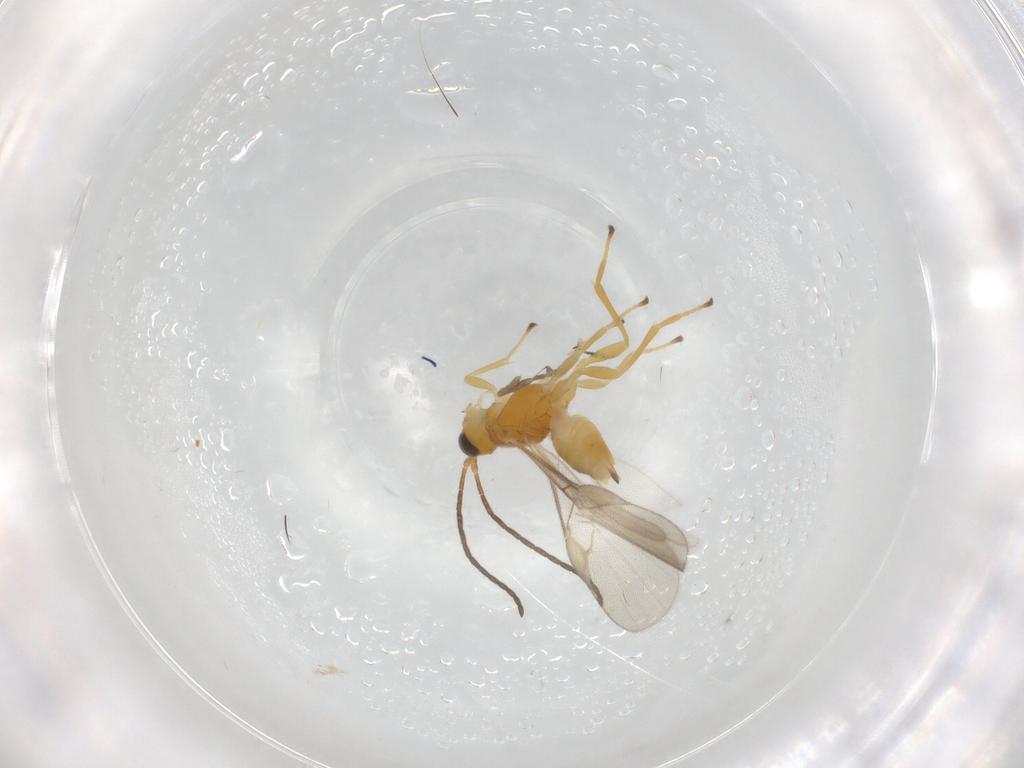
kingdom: Animalia
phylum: Arthropoda
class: Insecta
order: Hymenoptera
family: Braconidae
